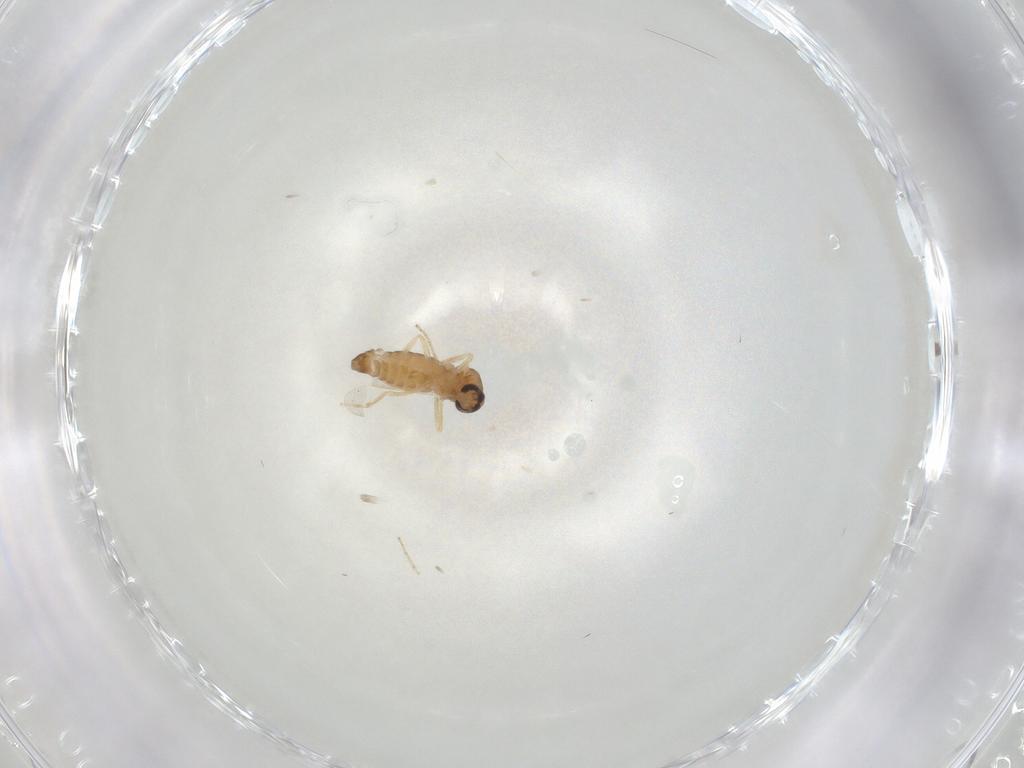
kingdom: Animalia
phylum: Arthropoda
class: Insecta
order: Diptera
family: Ceratopogonidae
